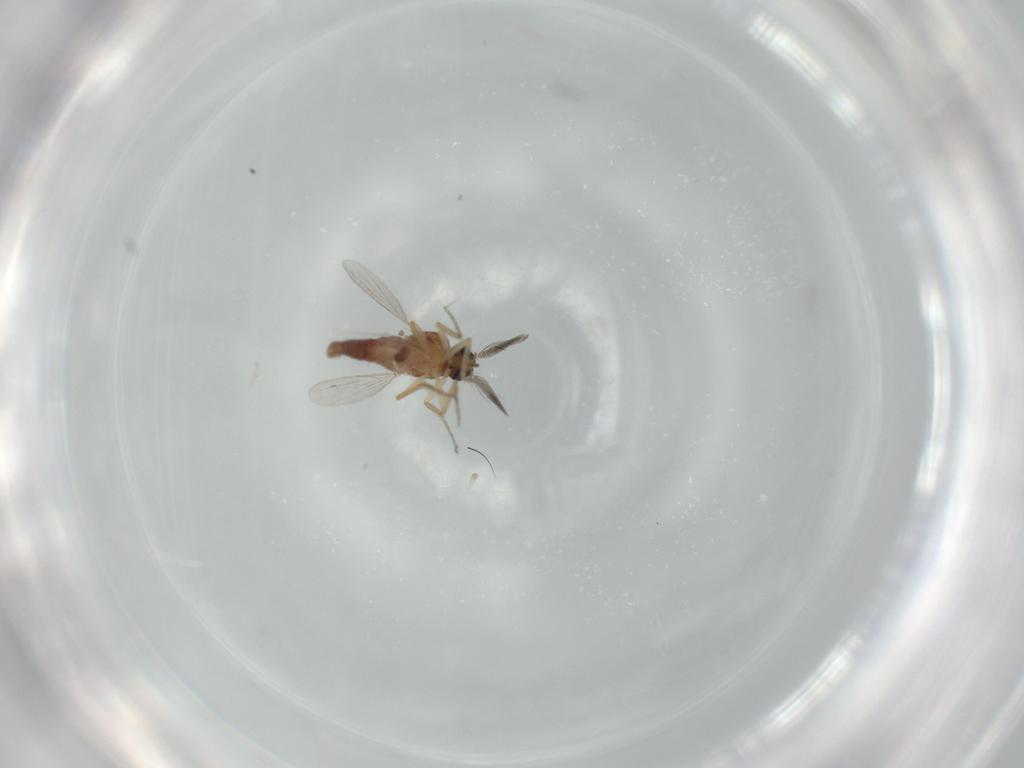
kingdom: Animalia
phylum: Arthropoda
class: Insecta
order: Diptera
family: Ceratopogonidae
